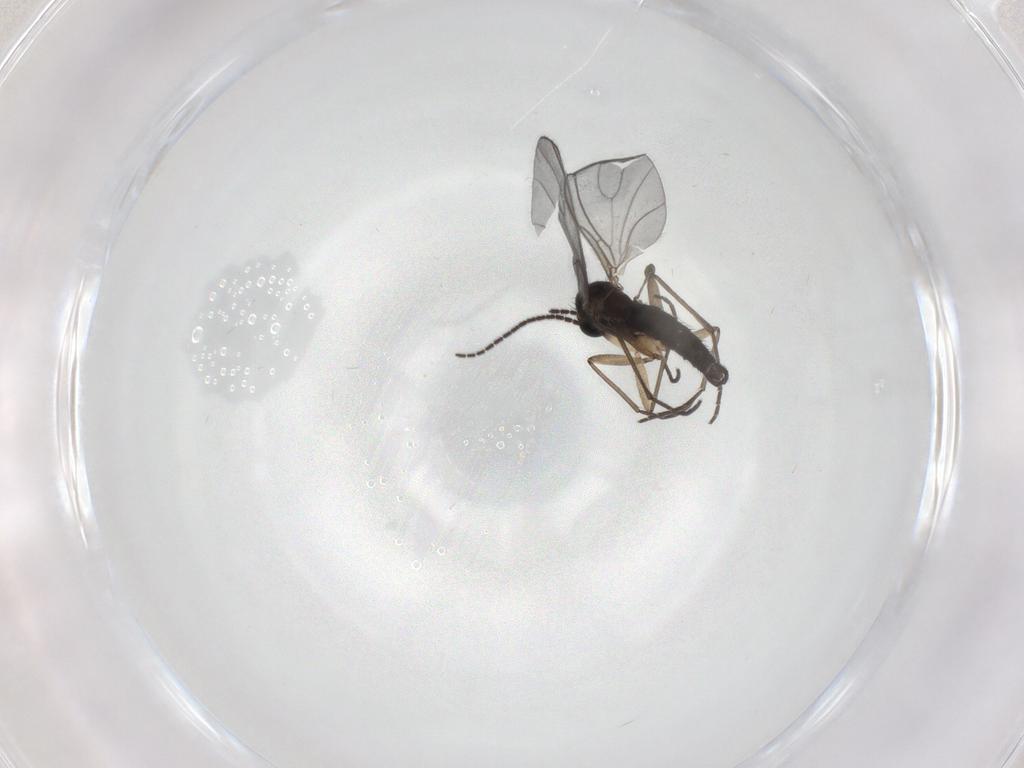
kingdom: Animalia
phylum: Arthropoda
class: Insecta
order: Diptera
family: Sciaridae
